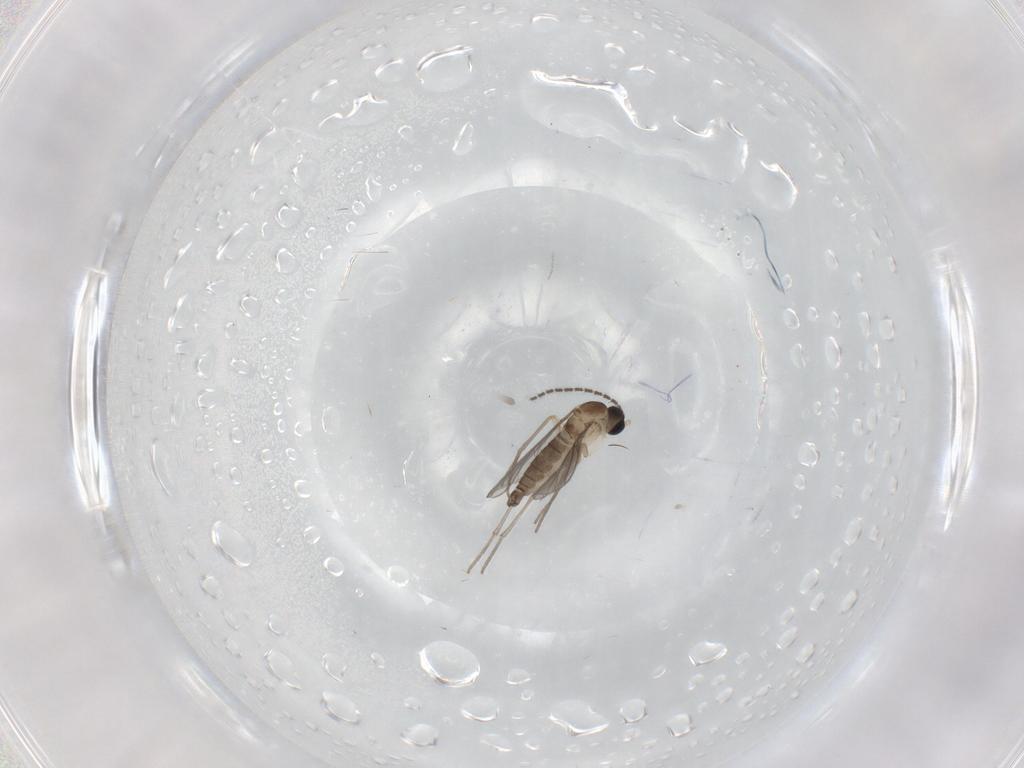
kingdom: Animalia
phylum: Arthropoda
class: Insecta
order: Diptera
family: Sciaridae
